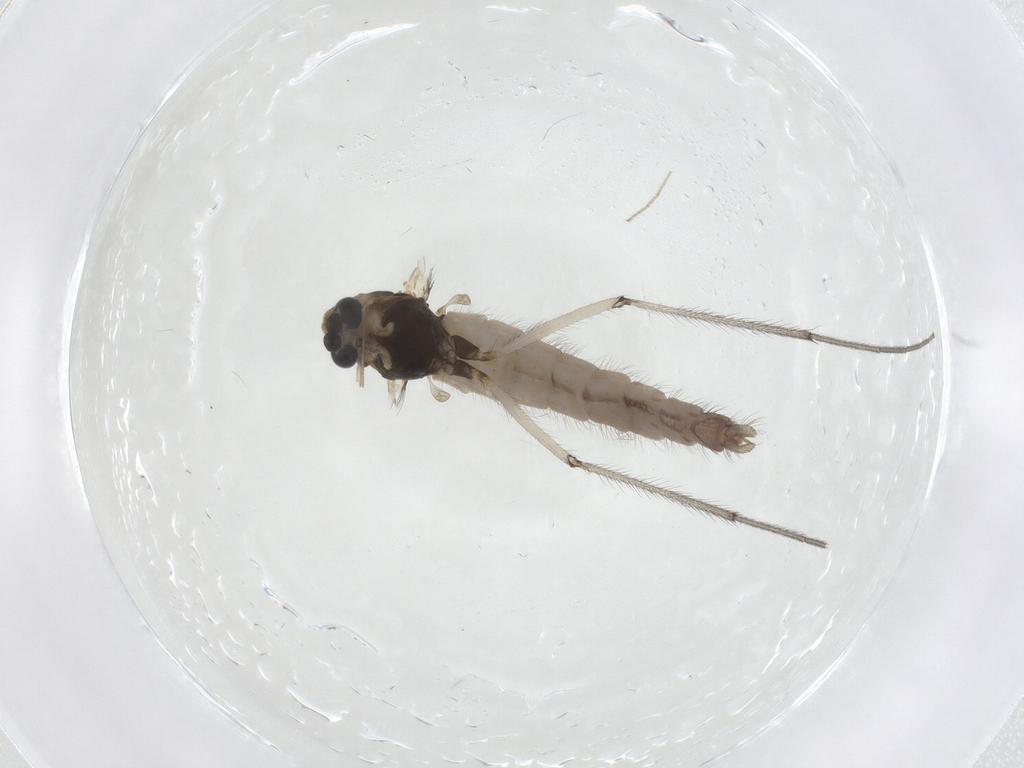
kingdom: Animalia
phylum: Arthropoda
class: Insecta
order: Diptera
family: Chironomidae
